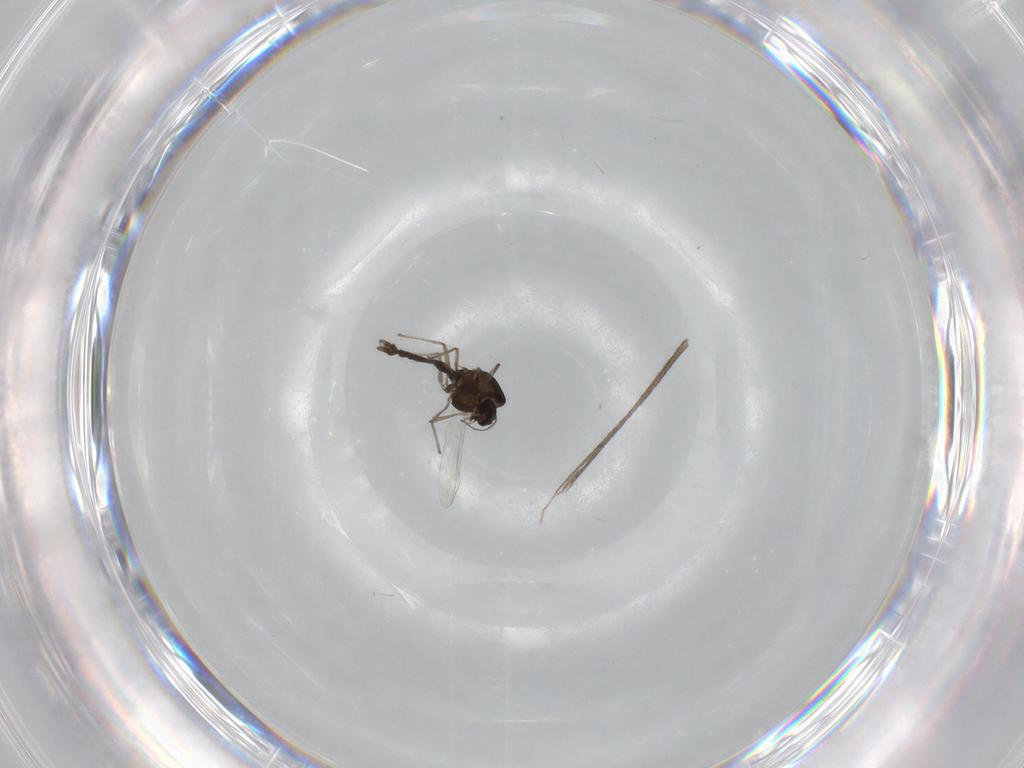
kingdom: Animalia
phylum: Arthropoda
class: Insecta
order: Diptera
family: Chironomidae
